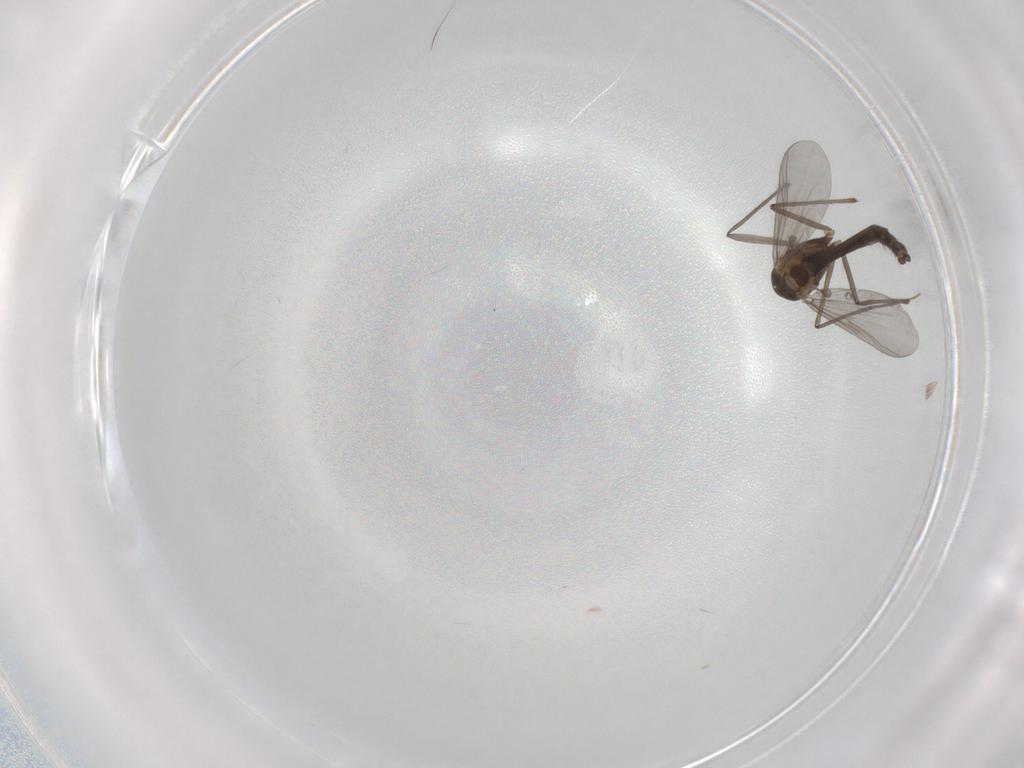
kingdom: Animalia
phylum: Arthropoda
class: Insecta
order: Diptera
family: Chironomidae
